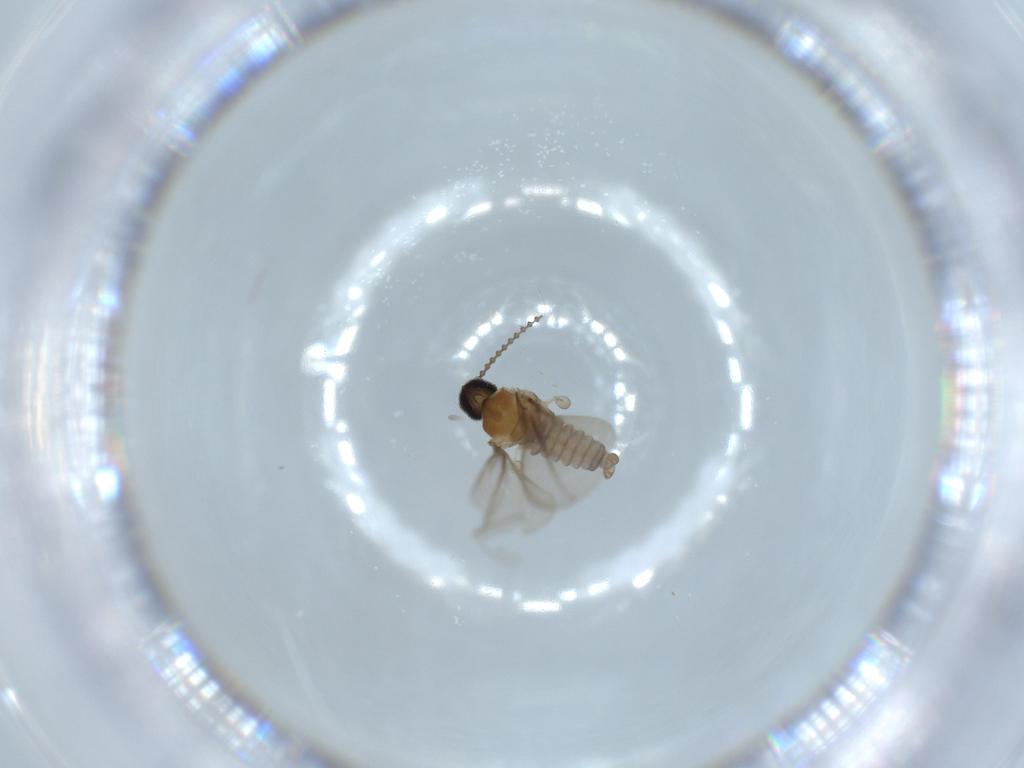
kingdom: Animalia
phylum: Arthropoda
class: Insecta
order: Diptera
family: Cecidomyiidae
